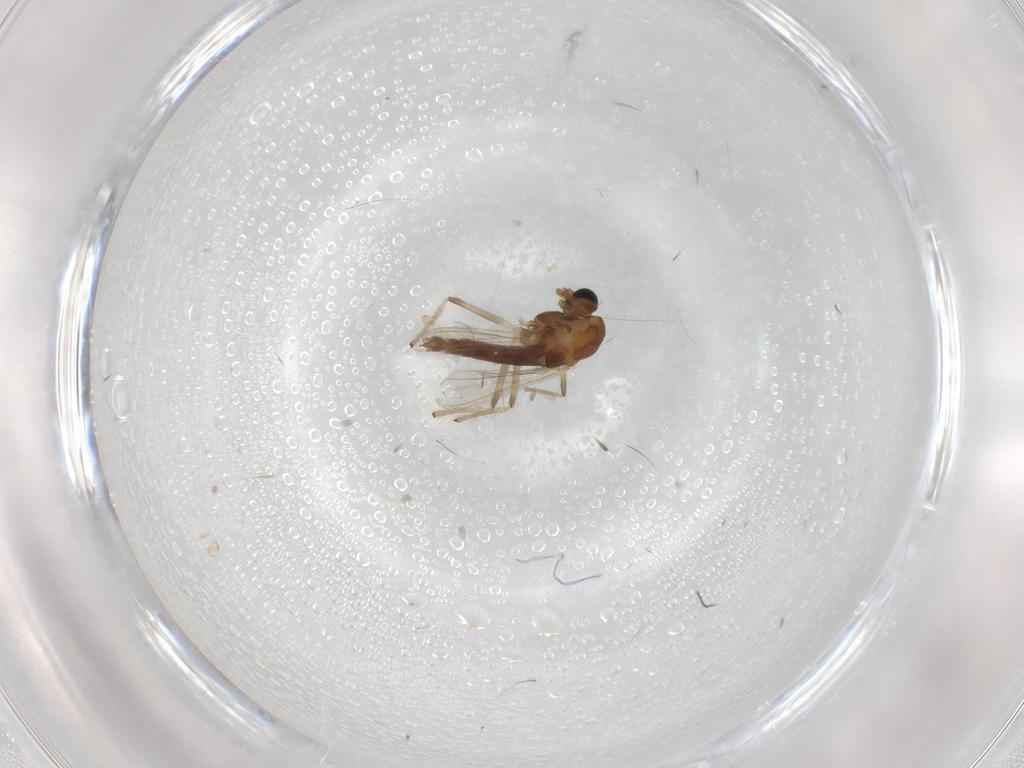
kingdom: Animalia
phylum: Arthropoda
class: Insecta
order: Diptera
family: Chironomidae
